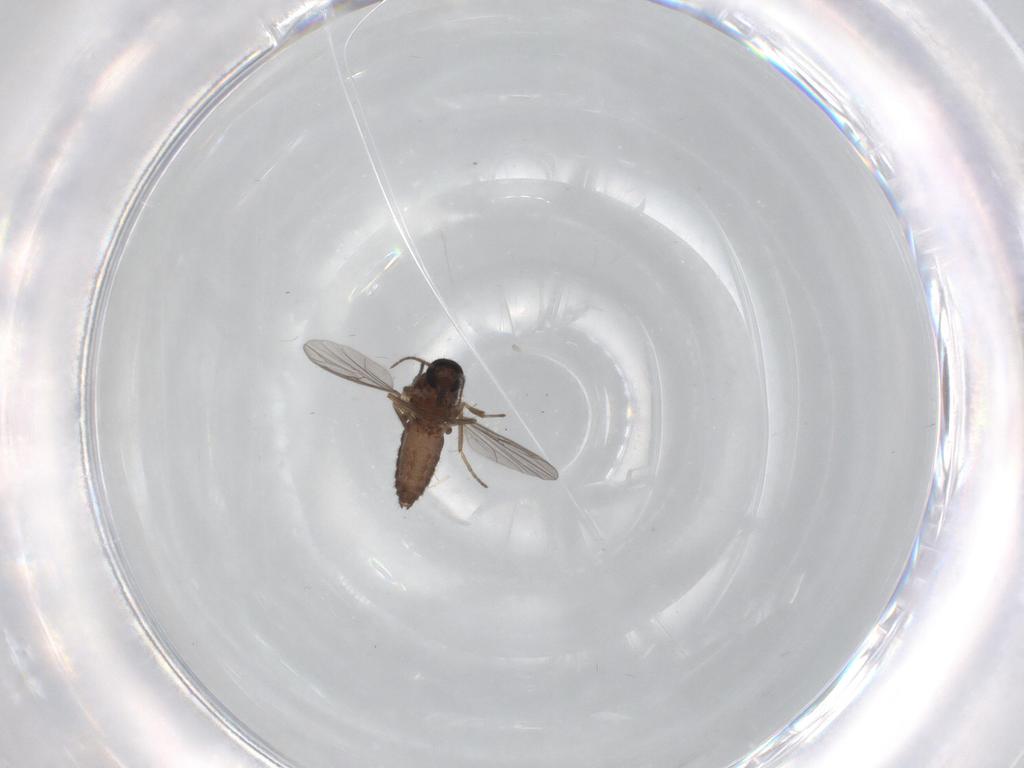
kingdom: Animalia
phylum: Arthropoda
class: Insecta
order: Diptera
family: Ceratopogonidae
